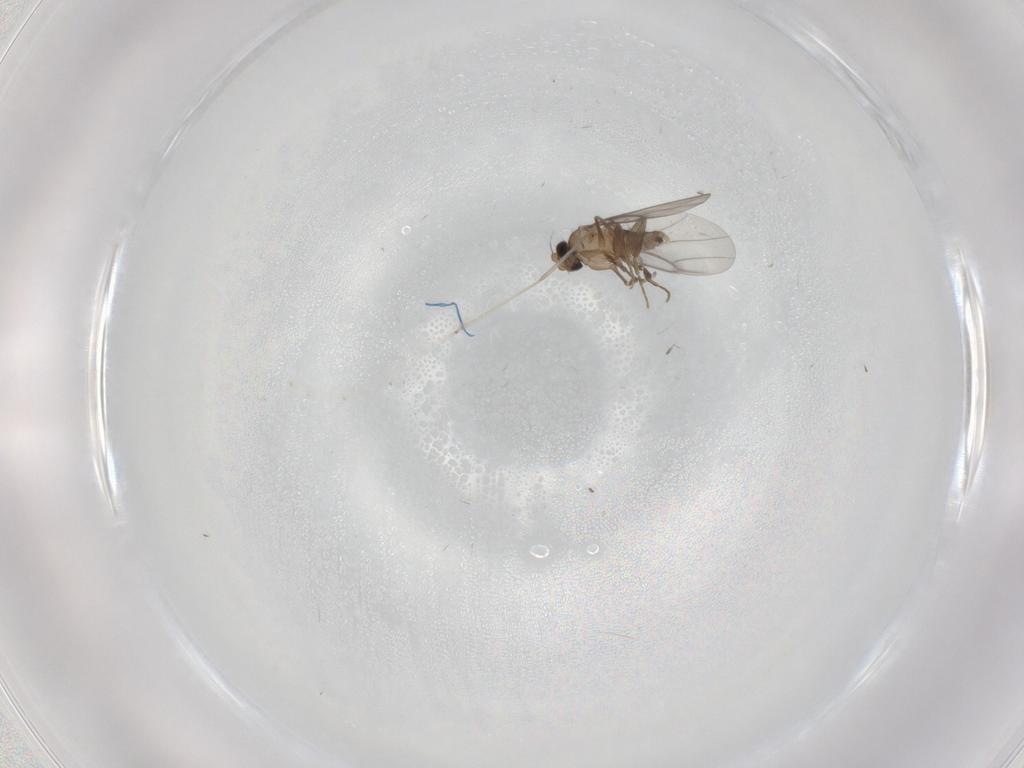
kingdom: Animalia
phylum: Arthropoda
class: Insecta
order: Diptera
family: Cecidomyiidae
